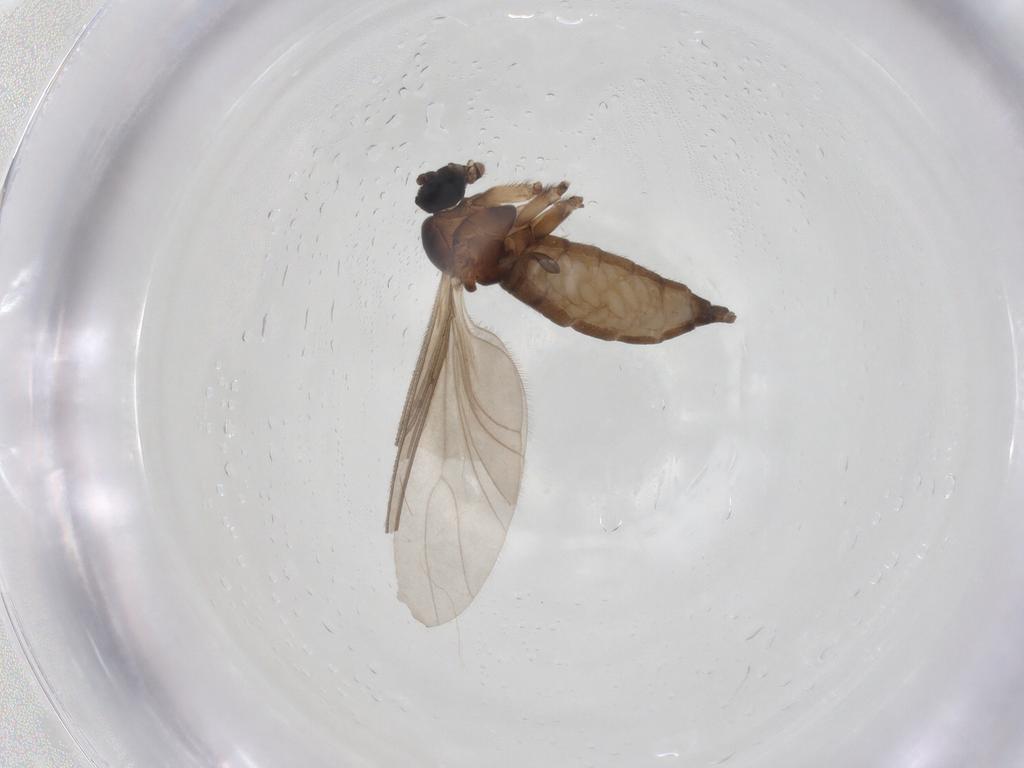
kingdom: Animalia
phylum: Arthropoda
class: Insecta
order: Diptera
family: Sciaridae
